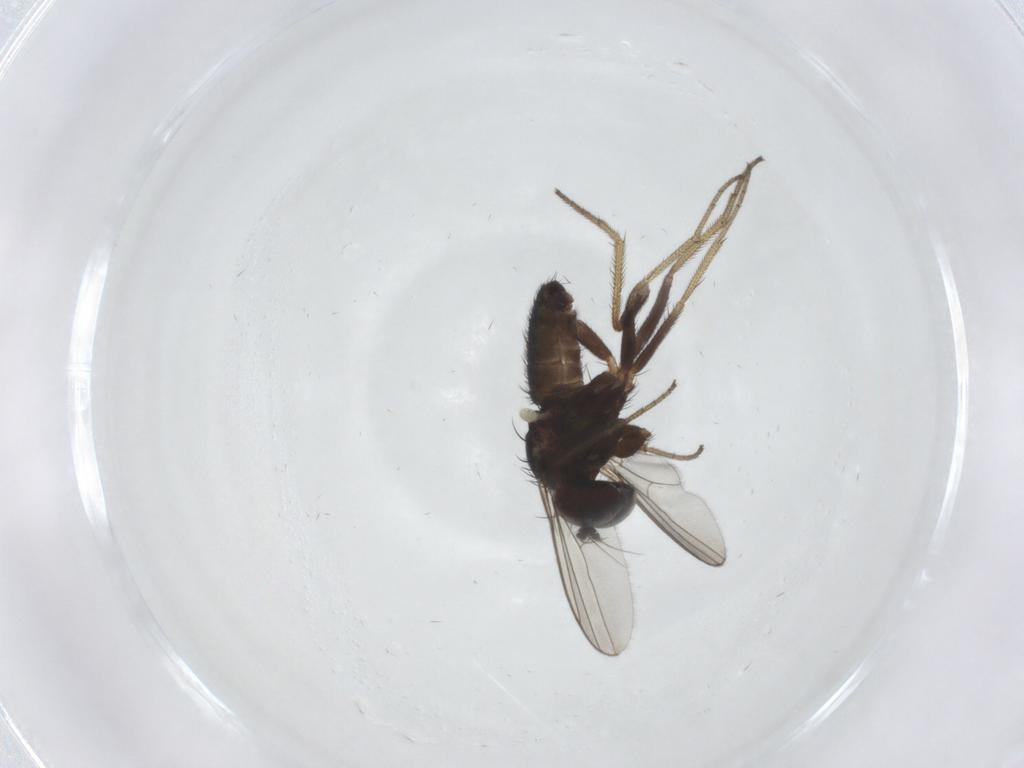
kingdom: Animalia
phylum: Arthropoda
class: Insecta
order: Diptera
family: Dolichopodidae
